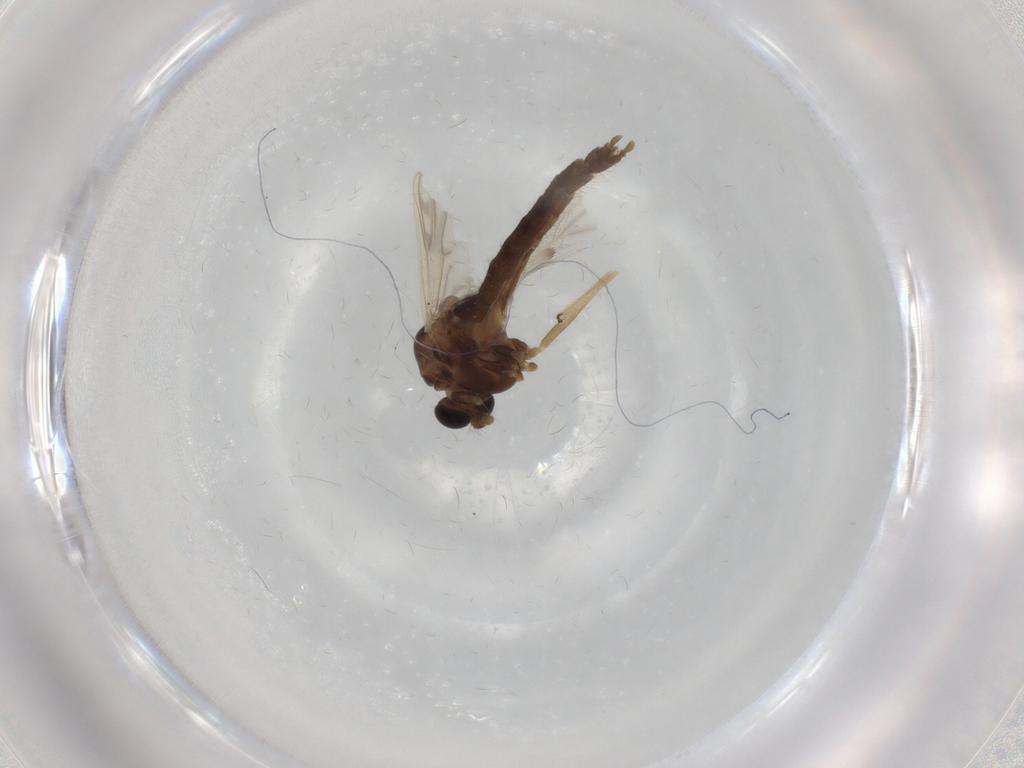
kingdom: Animalia
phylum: Arthropoda
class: Insecta
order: Diptera
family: Chironomidae
